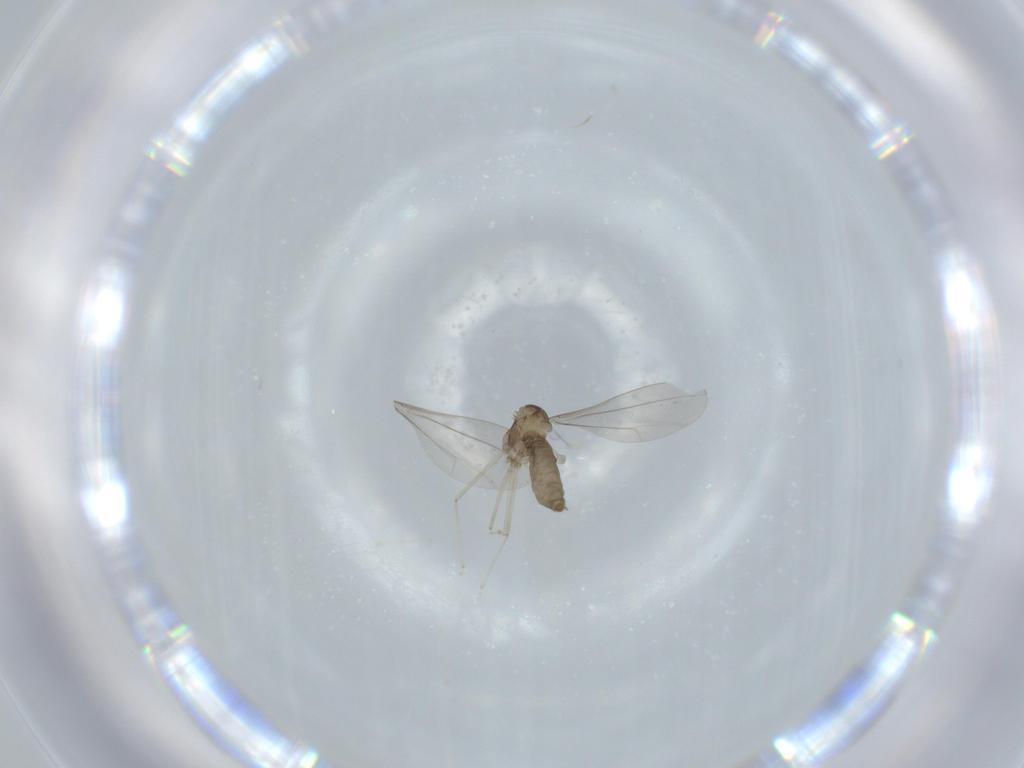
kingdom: Animalia
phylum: Arthropoda
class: Insecta
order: Diptera
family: Cecidomyiidae
